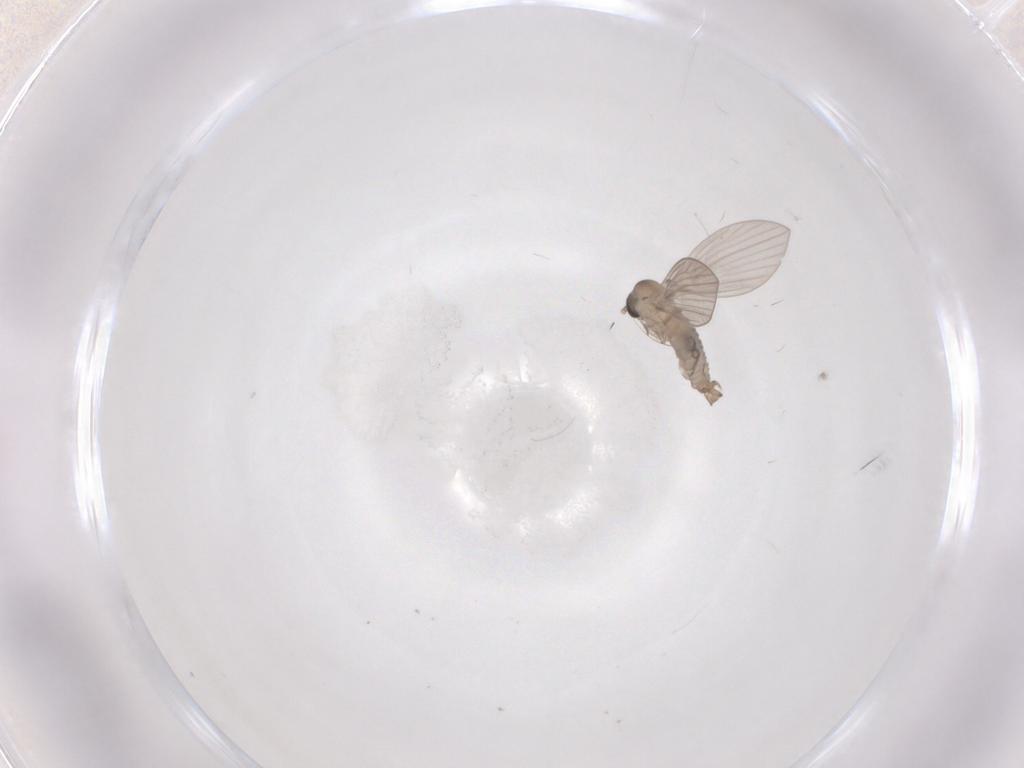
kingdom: Animalia
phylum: Arthropoda
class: Insecta
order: Diptera
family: Psychodidae
